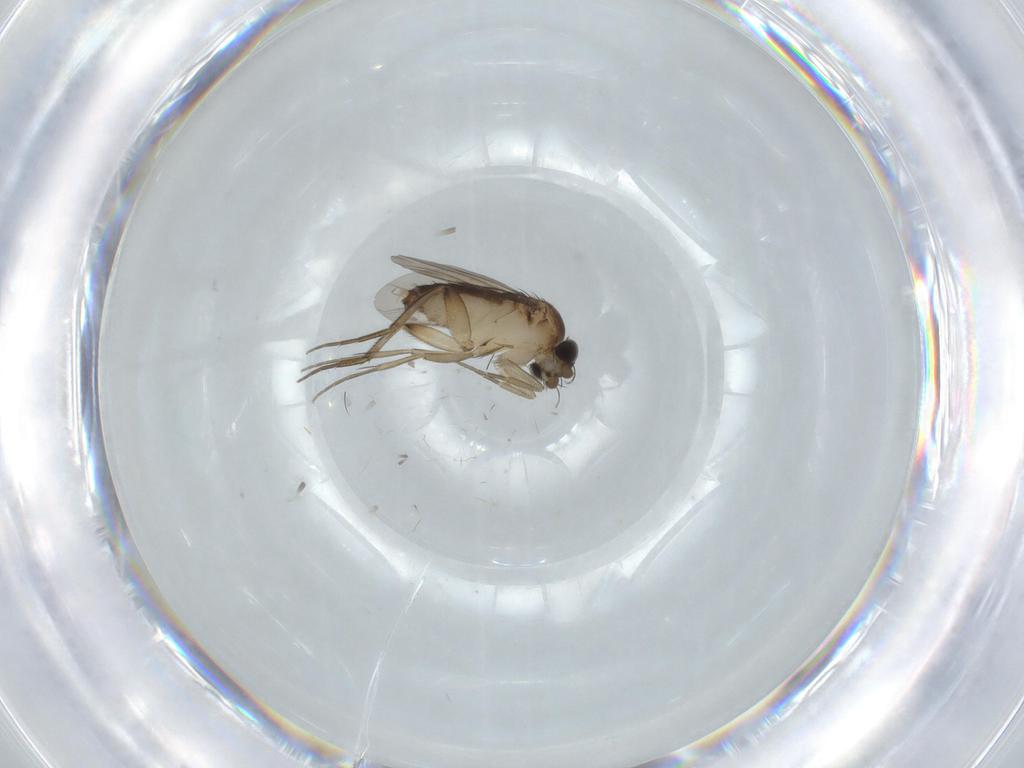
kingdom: Animalia
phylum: Arthropoda
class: Insecta
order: Diptera
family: Phoridae
